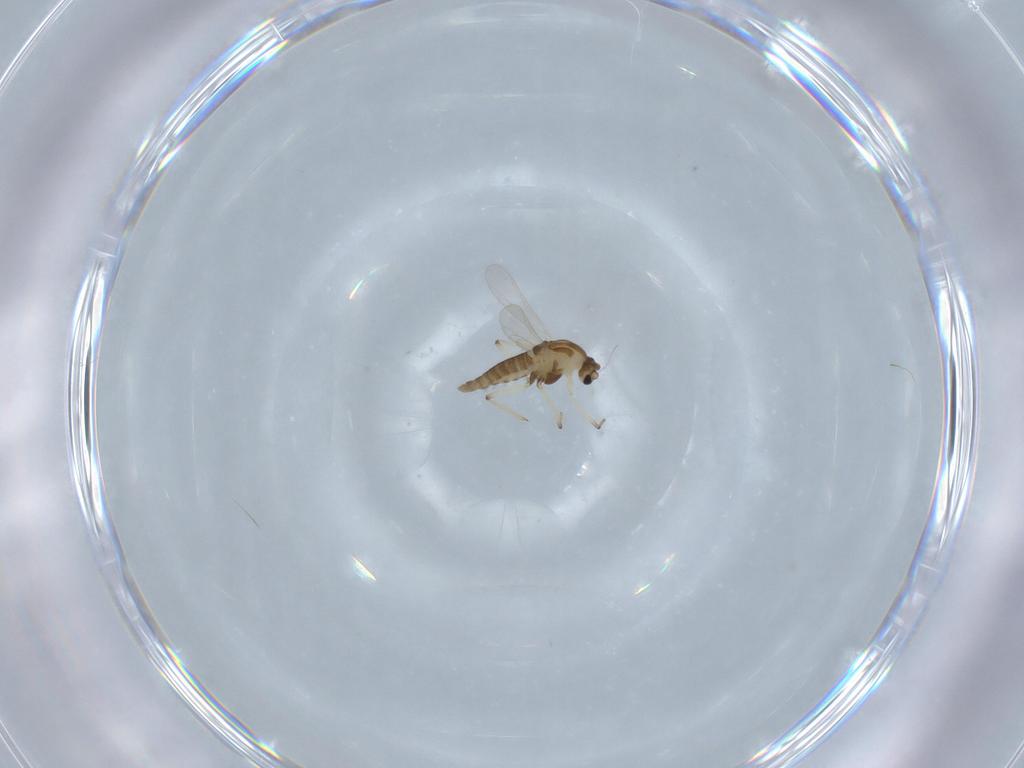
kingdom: Animalia
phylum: Arthropoda
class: Insecta
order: Diptera
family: Chironomidae
